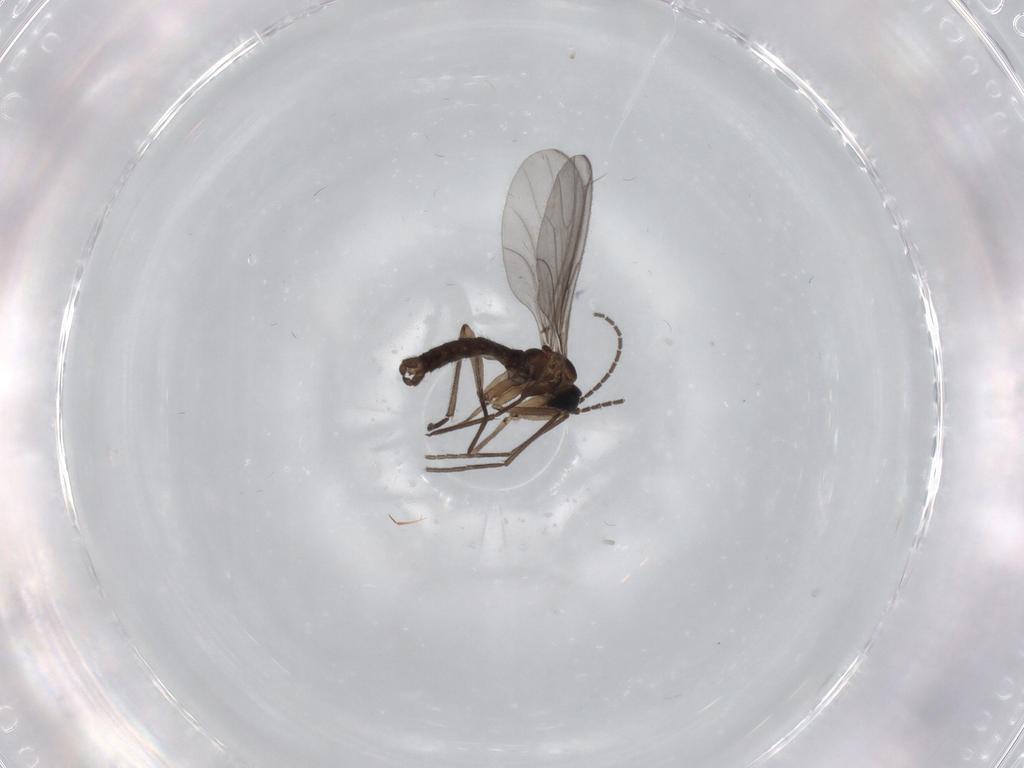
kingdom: Animalia
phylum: Arthropoda
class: Insecta
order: Diptera
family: Sciaridae
